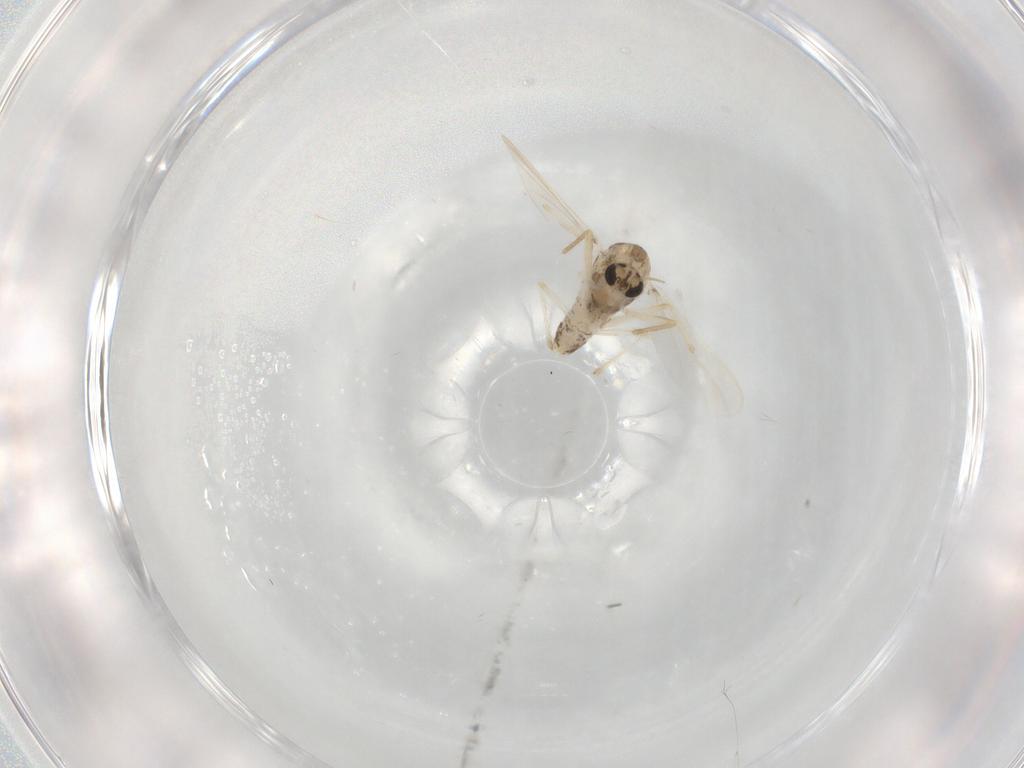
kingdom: Animalia
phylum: Arthropoda
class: Insecta
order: Diptera
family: Chironomidae
